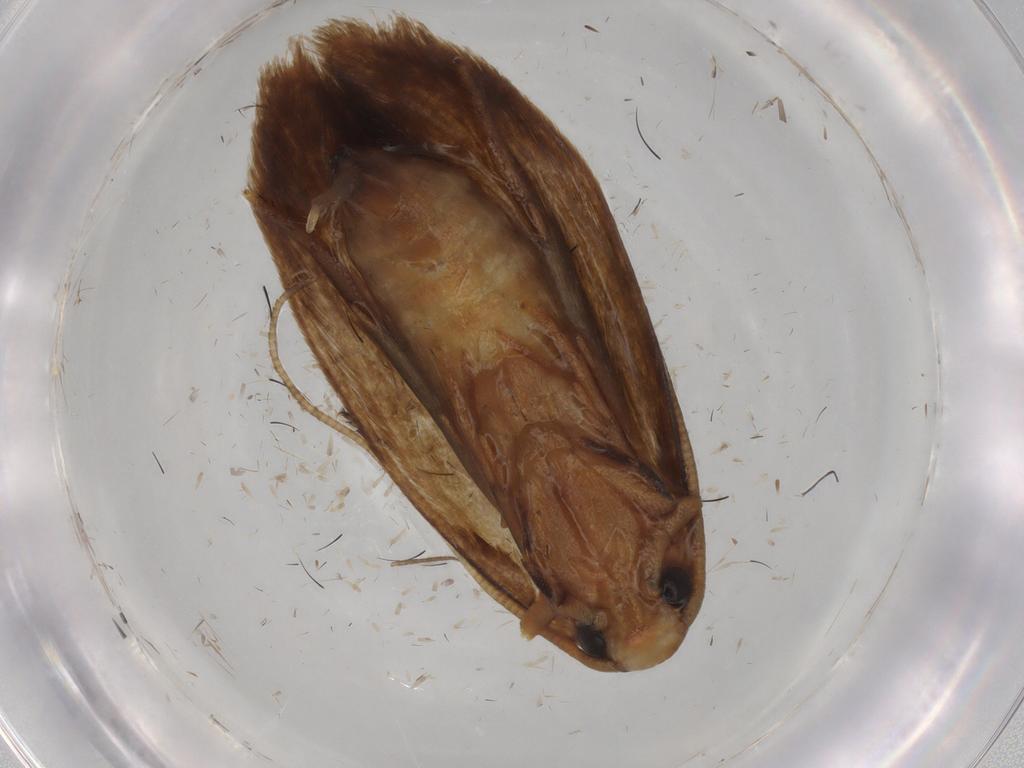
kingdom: Animalia
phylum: Arthropoda
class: Insecta
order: Lepidoptera
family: Tineidae
